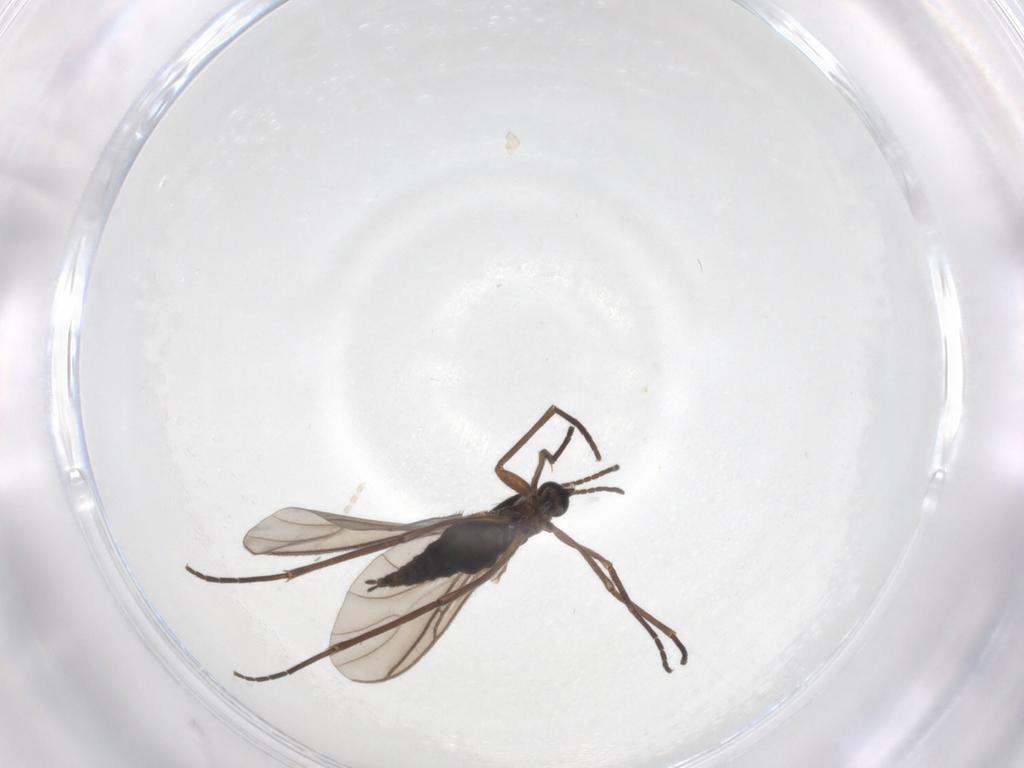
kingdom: Animalia
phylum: Arthropoda
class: Insecta
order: Diptera
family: Sciaridae
